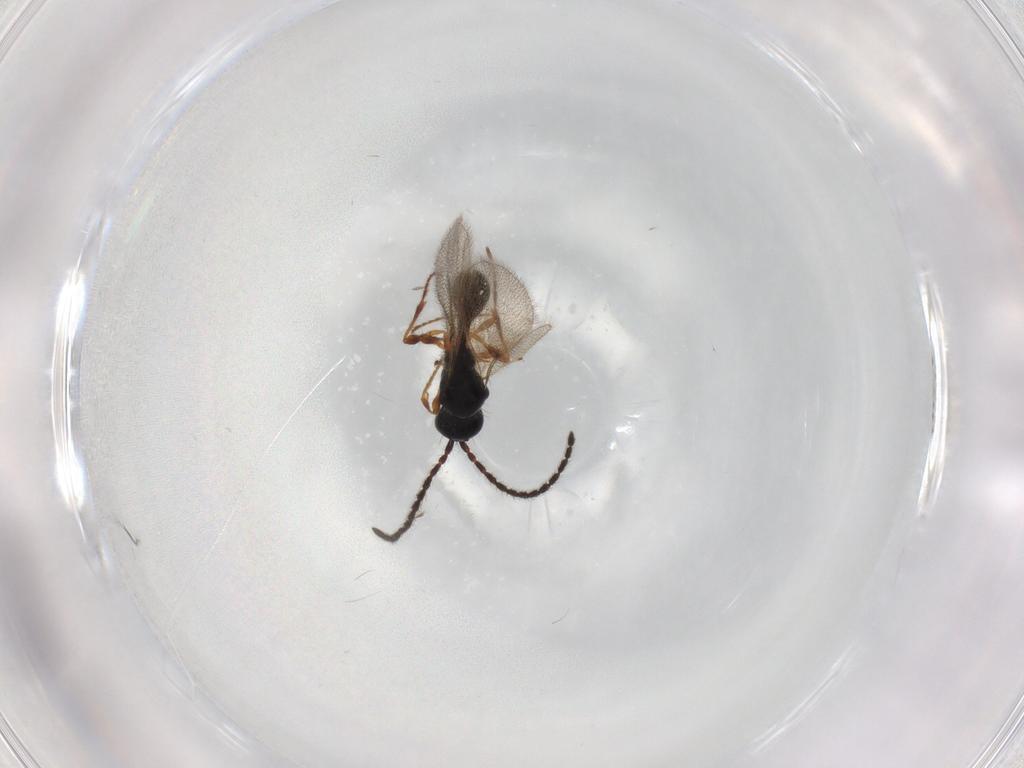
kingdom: Animalia
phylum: Arthropoda
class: Insecta
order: Hymenoptera
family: Diapriidae
